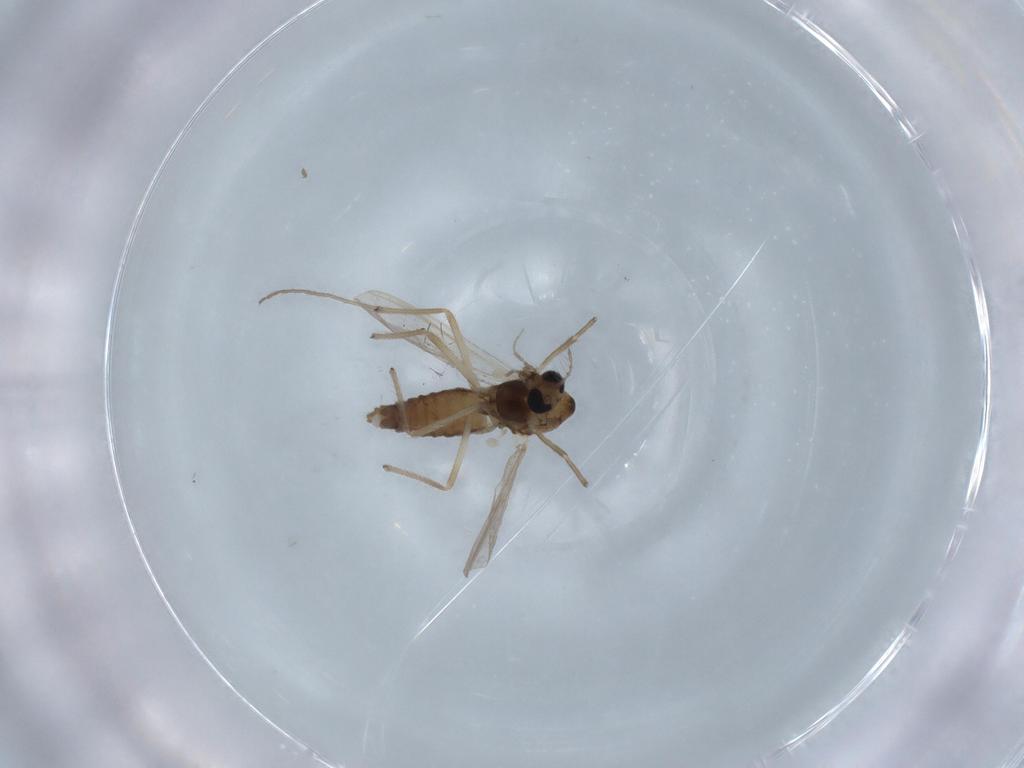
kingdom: Animalia
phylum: Arthropoda
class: Insecta
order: Diptera
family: Chironomidae
